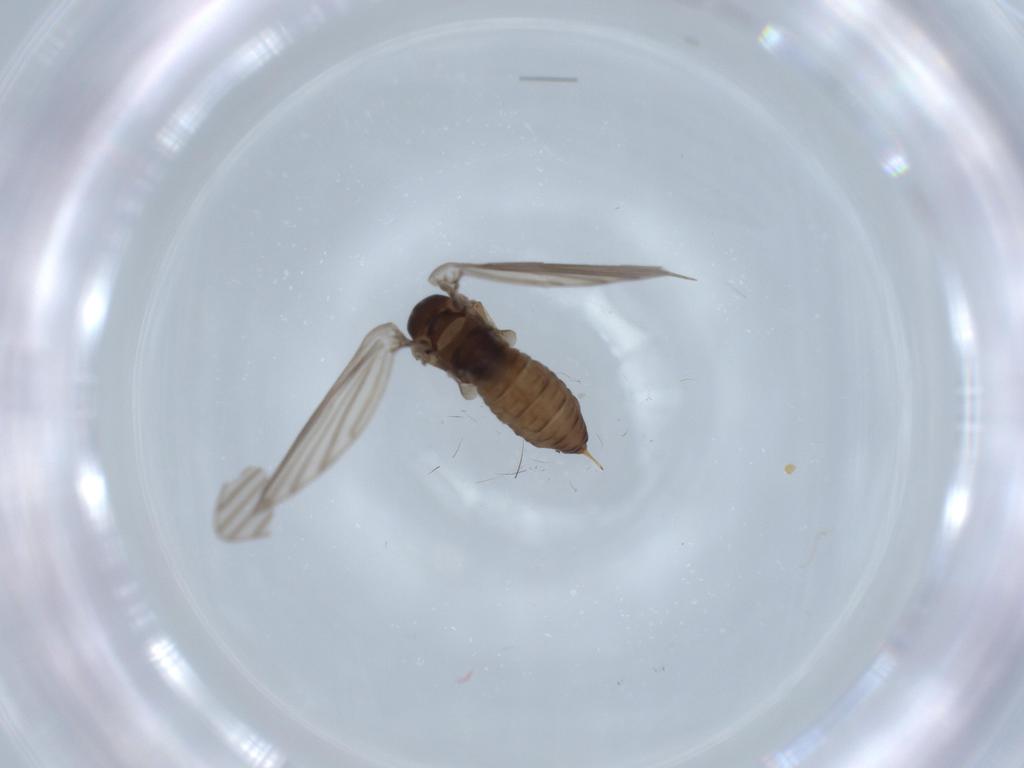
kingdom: Animalia
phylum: Arthropoda
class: Insecta
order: Diptera
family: Psychodidae
